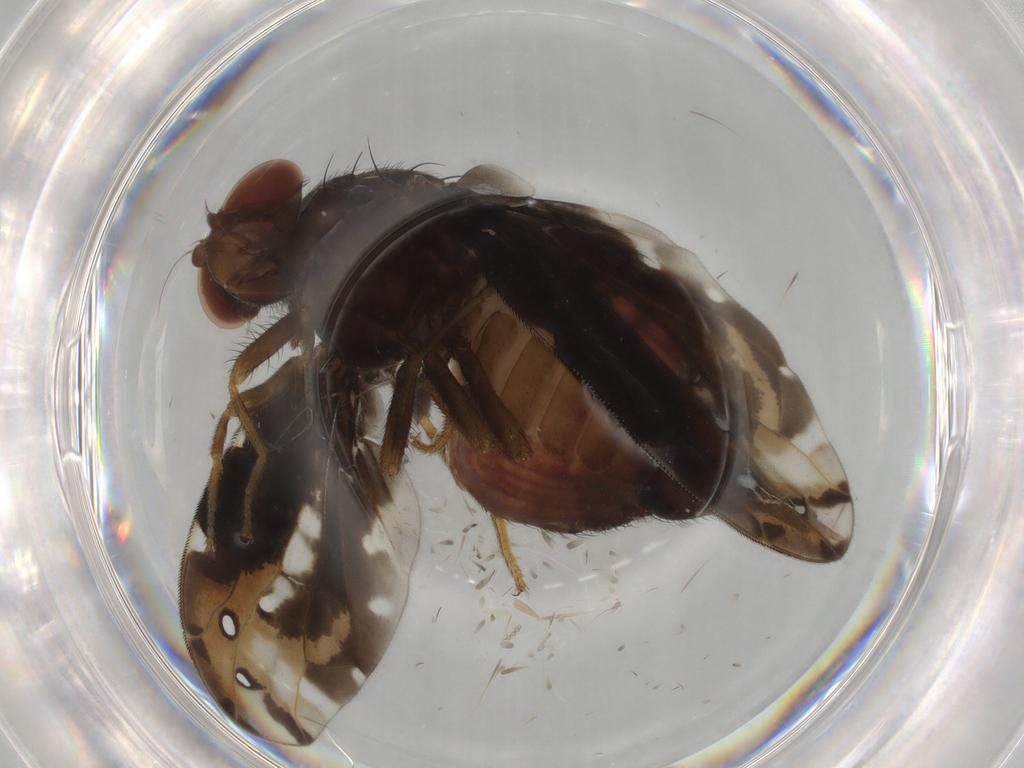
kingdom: Animalia
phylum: Arthropoda
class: Insecta
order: Diptera
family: Ulidiidae
